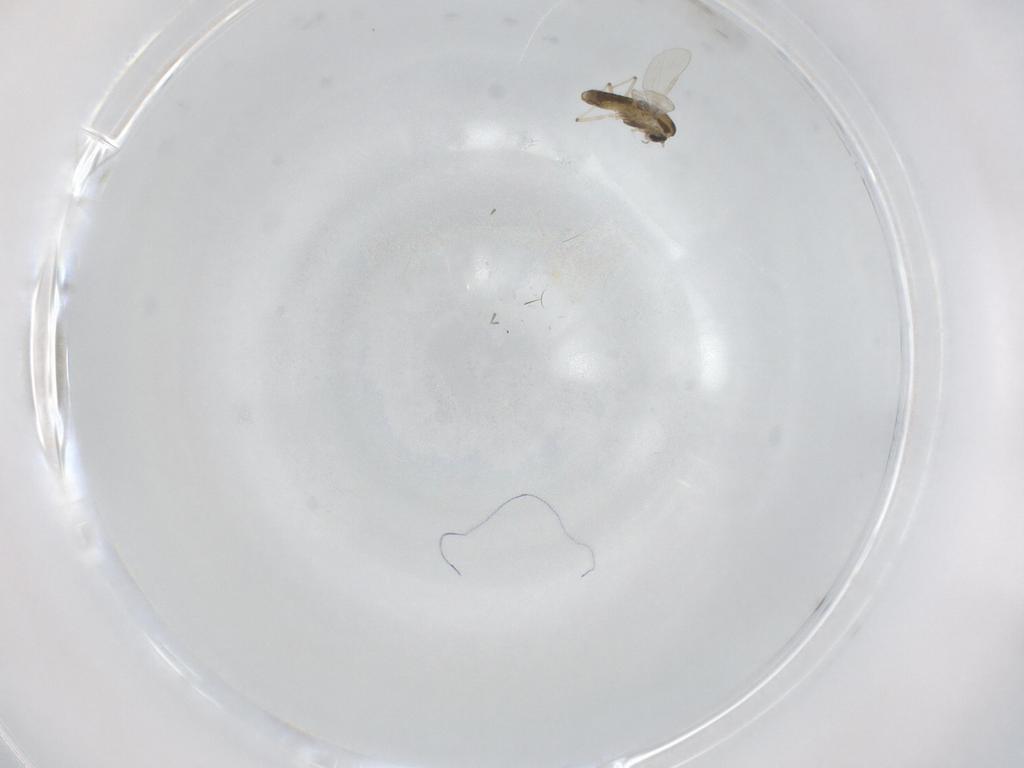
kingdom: Animalia
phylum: Arthropoda
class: Insecta
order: Diptera
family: Chironomidae
